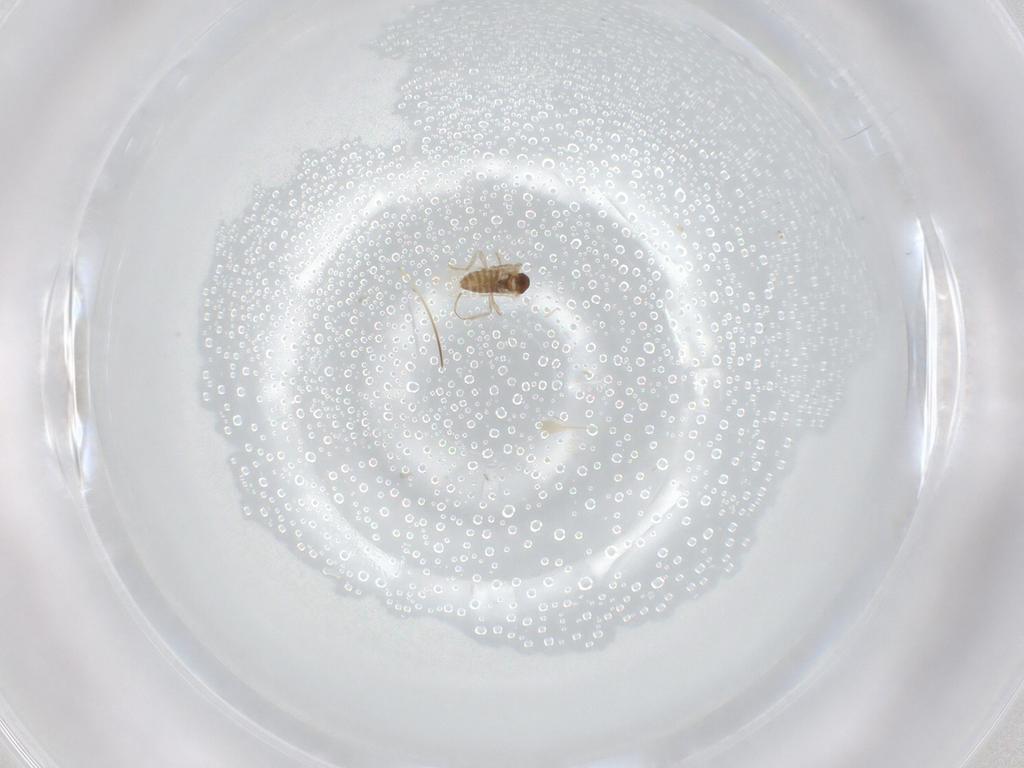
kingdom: Animalia
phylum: Arthropoda
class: Insecta
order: Diptera
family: Cecidomyiidae
